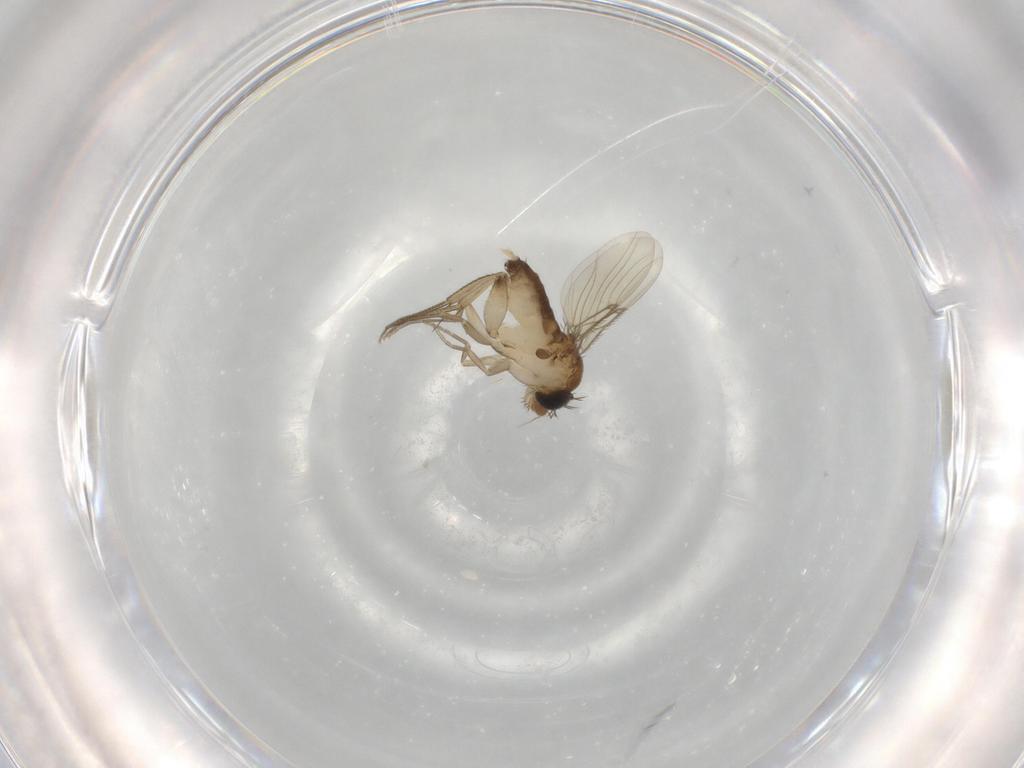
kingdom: Animalia
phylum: Arthropoda
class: Insecta
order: Diptera
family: Phoridae
